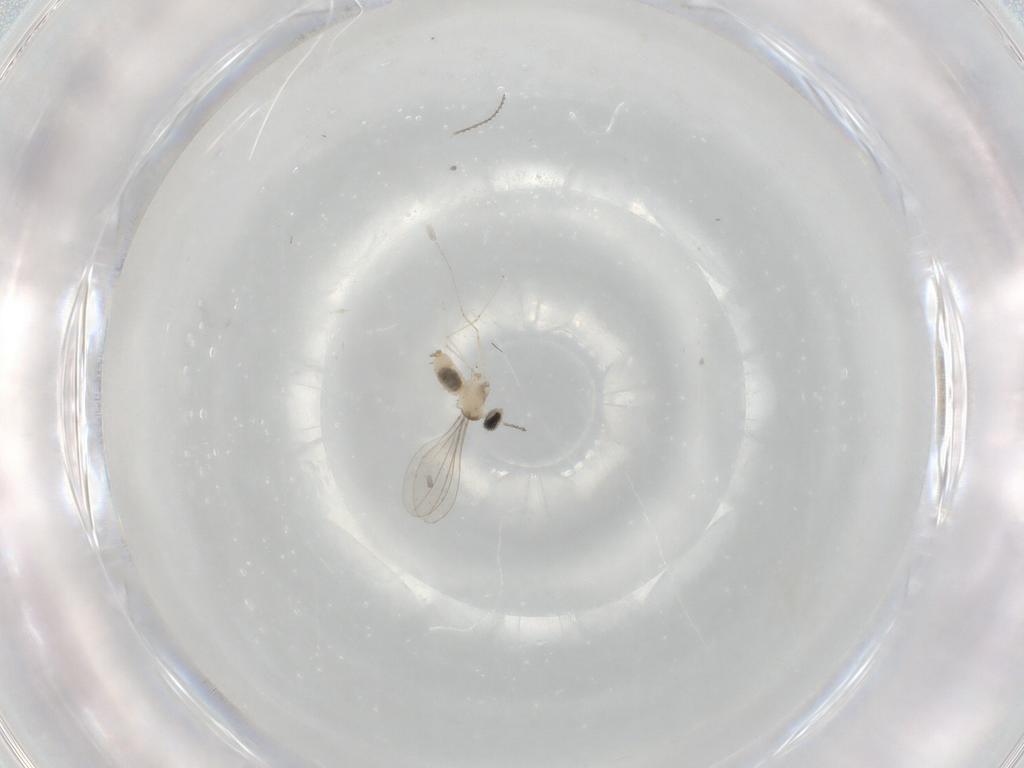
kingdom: Animalia
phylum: Arthropoda
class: Insecta
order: Diptera
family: Cecidomyiidae
